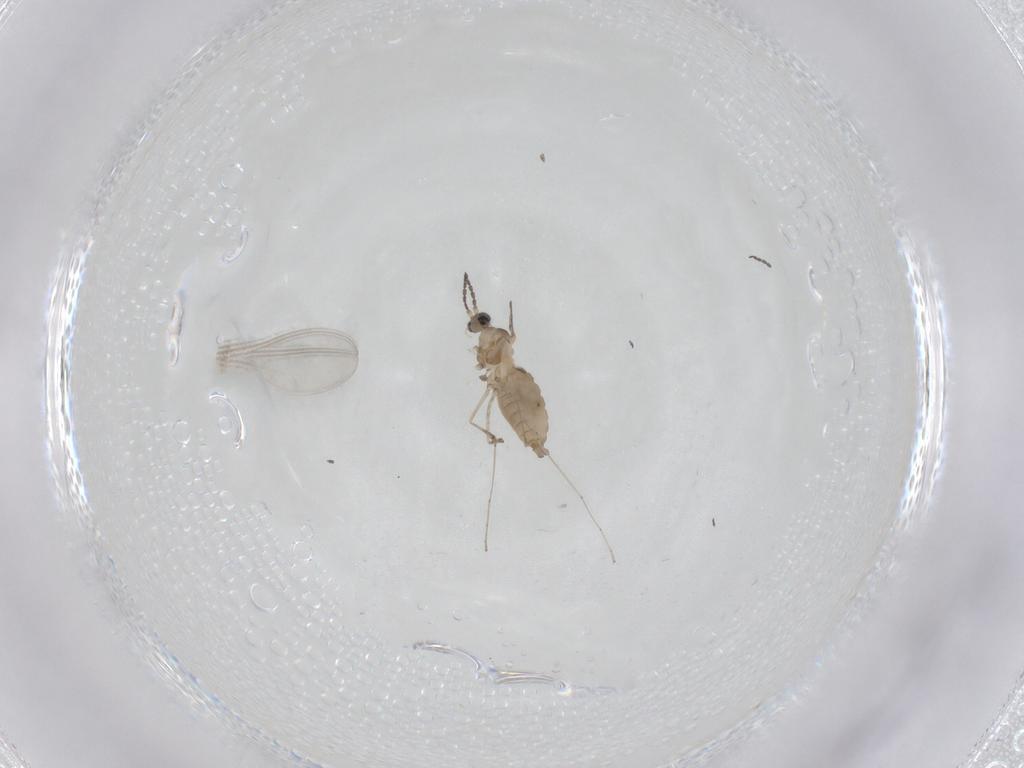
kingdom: Animalia
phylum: Arthropoda
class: Insecta
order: Diptera
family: Cecidomyiidae
